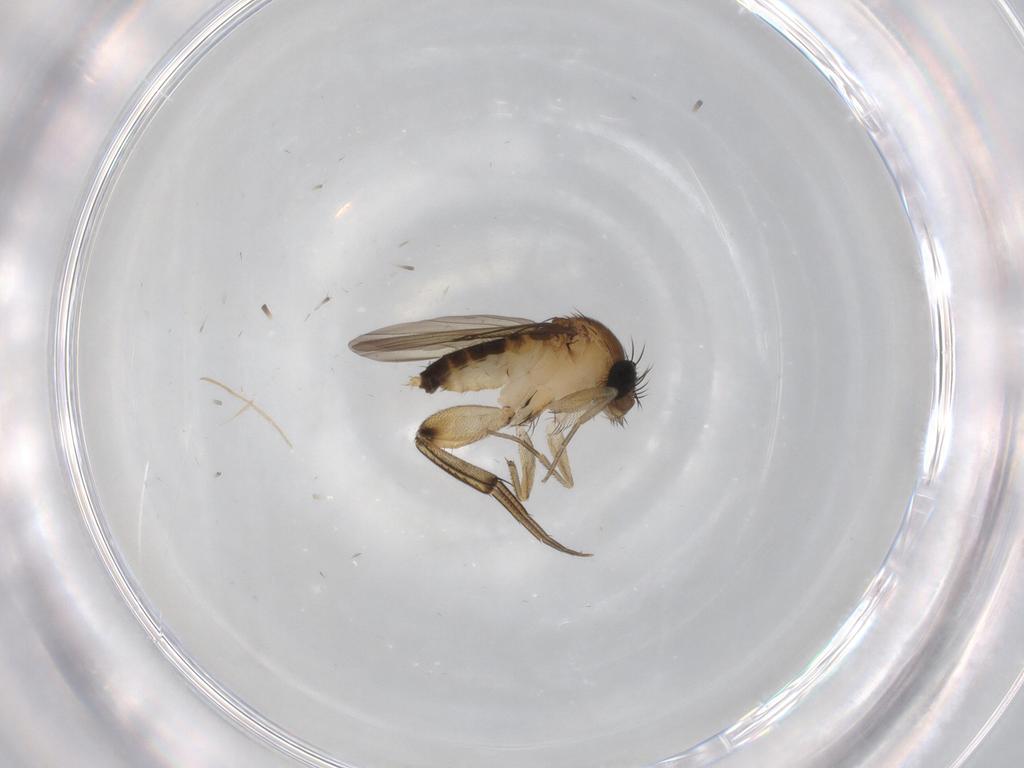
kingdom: Animalia
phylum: Arthropoda
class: Insecta
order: Diptera
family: Phoridae
